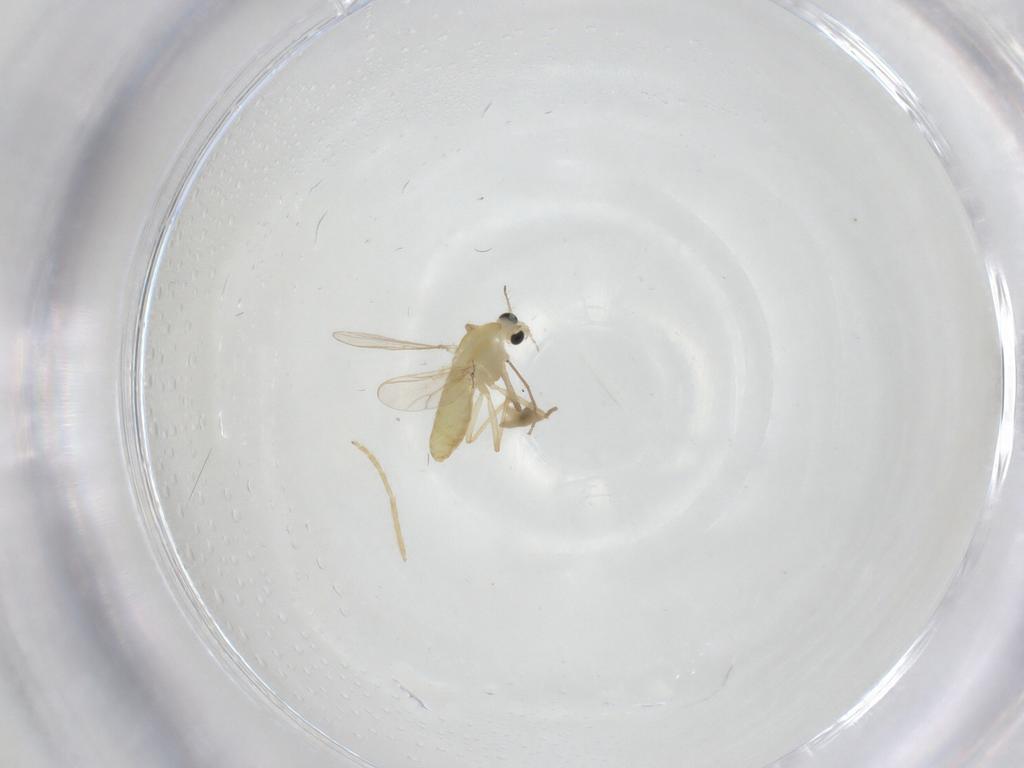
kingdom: Animalia
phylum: Arthropoda
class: Insecta
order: Diptera
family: Chironomidae
